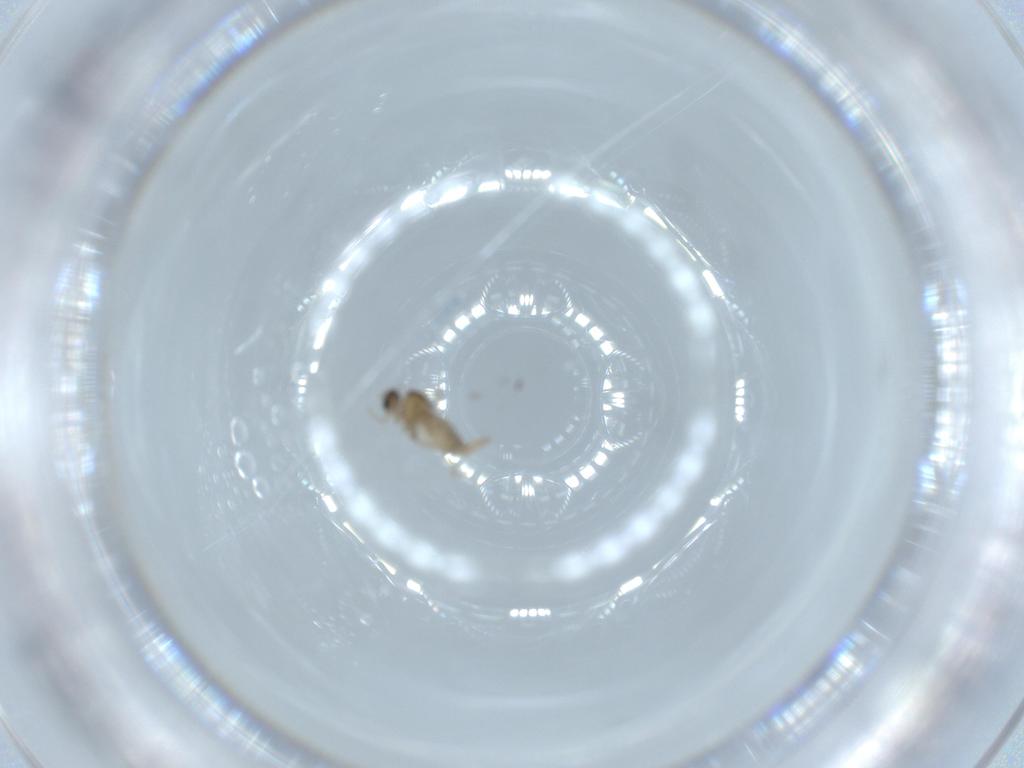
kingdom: Animalia
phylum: Arthropoda
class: Insecta
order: Diptera
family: Cecidomyiidae
